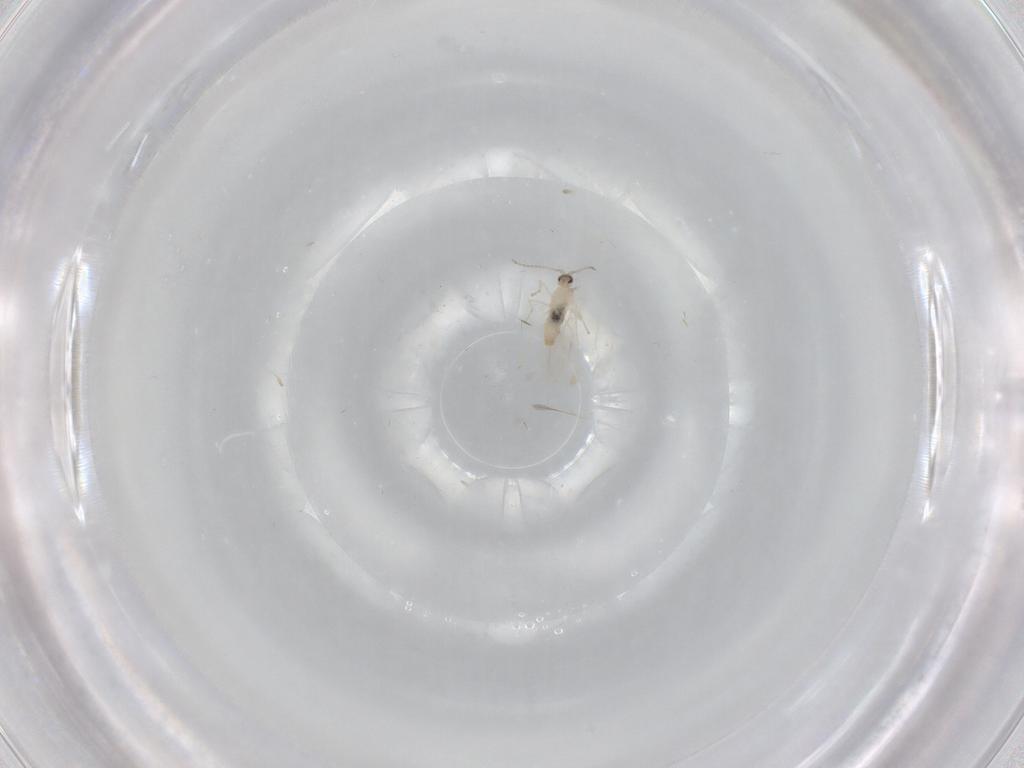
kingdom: Animalia
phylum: Arthropoda
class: Insecta
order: Diptera
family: Cecidomyiidae
